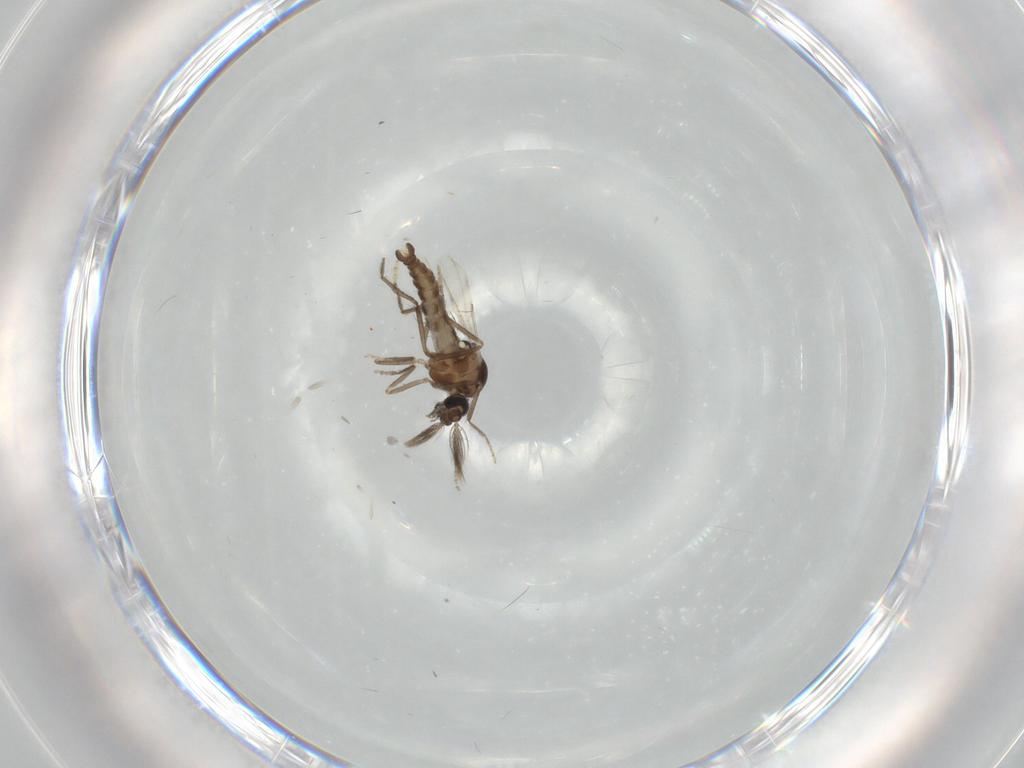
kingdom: Animalia
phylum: Arthropoda
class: Insecta
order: Diptera
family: Ceratopogonidae
